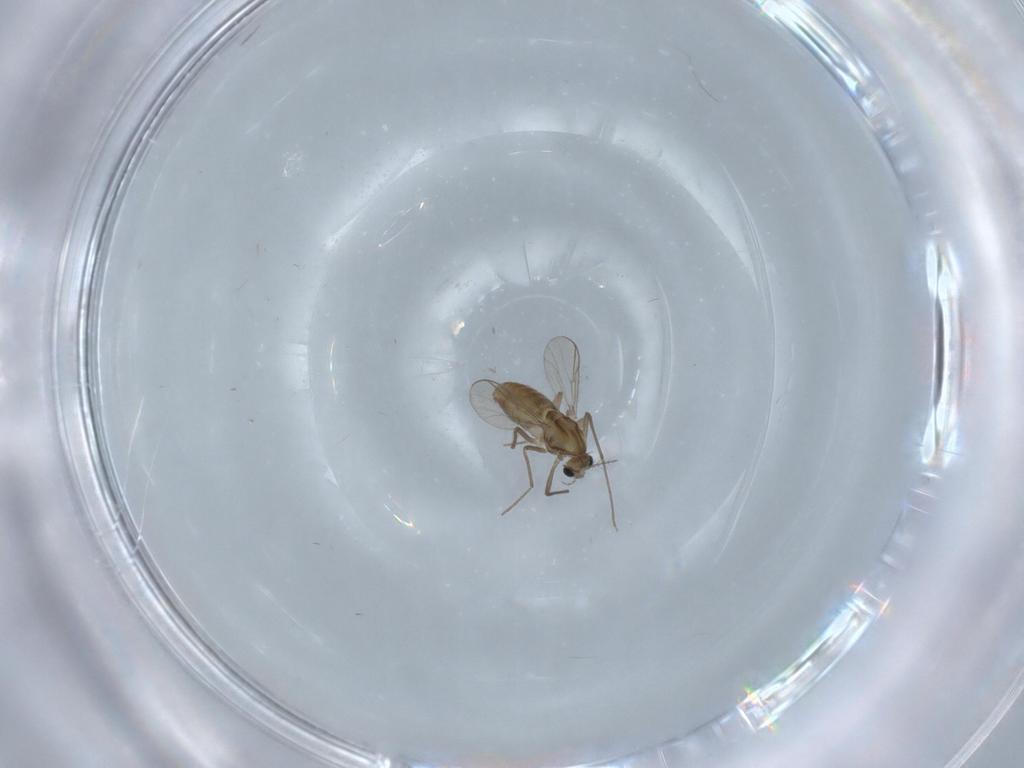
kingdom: Animalia
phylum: Arthropoda
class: Insecta
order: Diptera
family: Chironomidae
